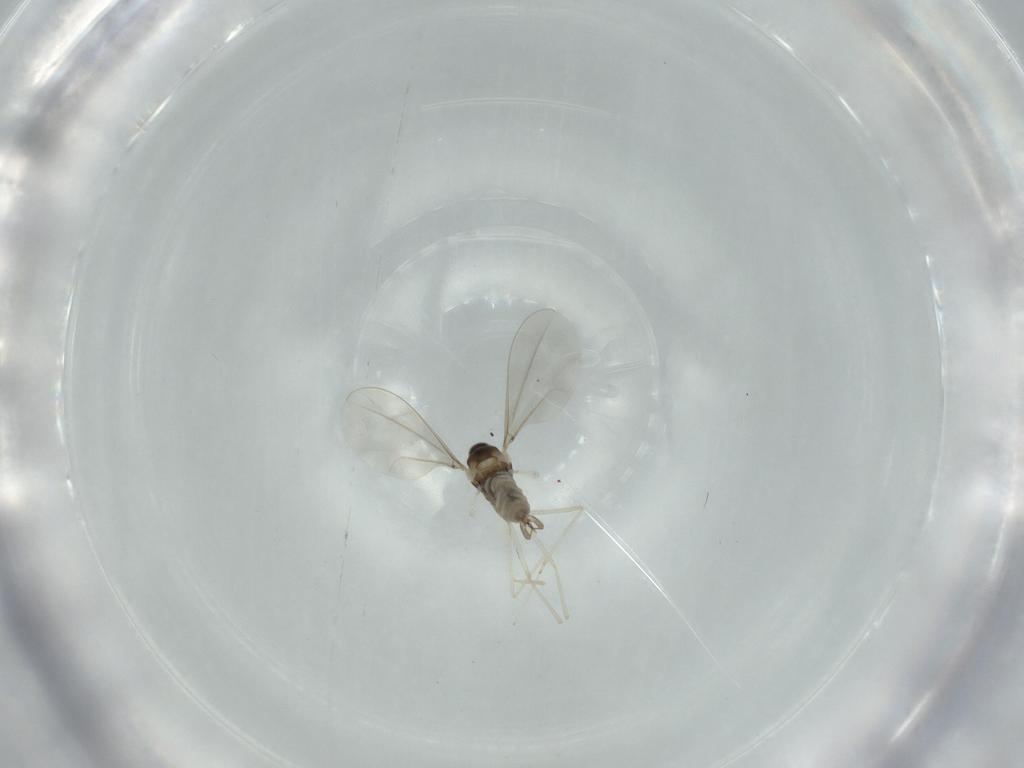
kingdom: Animalia
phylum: Arthropoda
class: Insecta
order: Diptera
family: Cecidomyiidae
